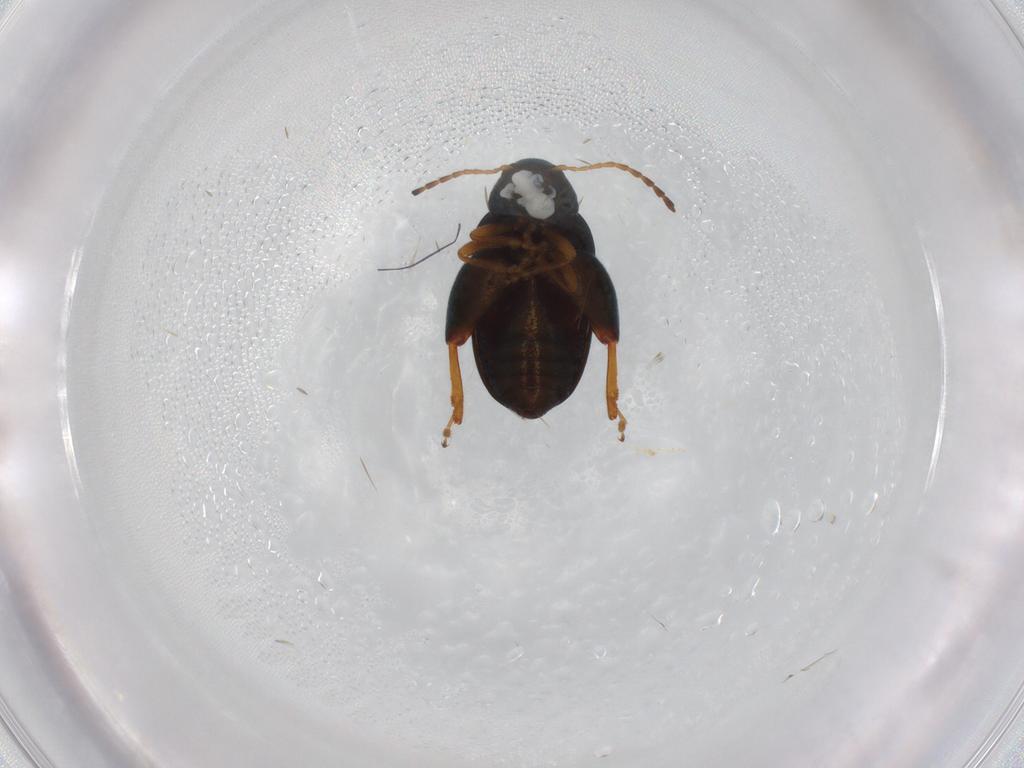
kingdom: Animalia
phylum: Arthropoda
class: Insecta
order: Coleoptera
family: Chrysomelidae
